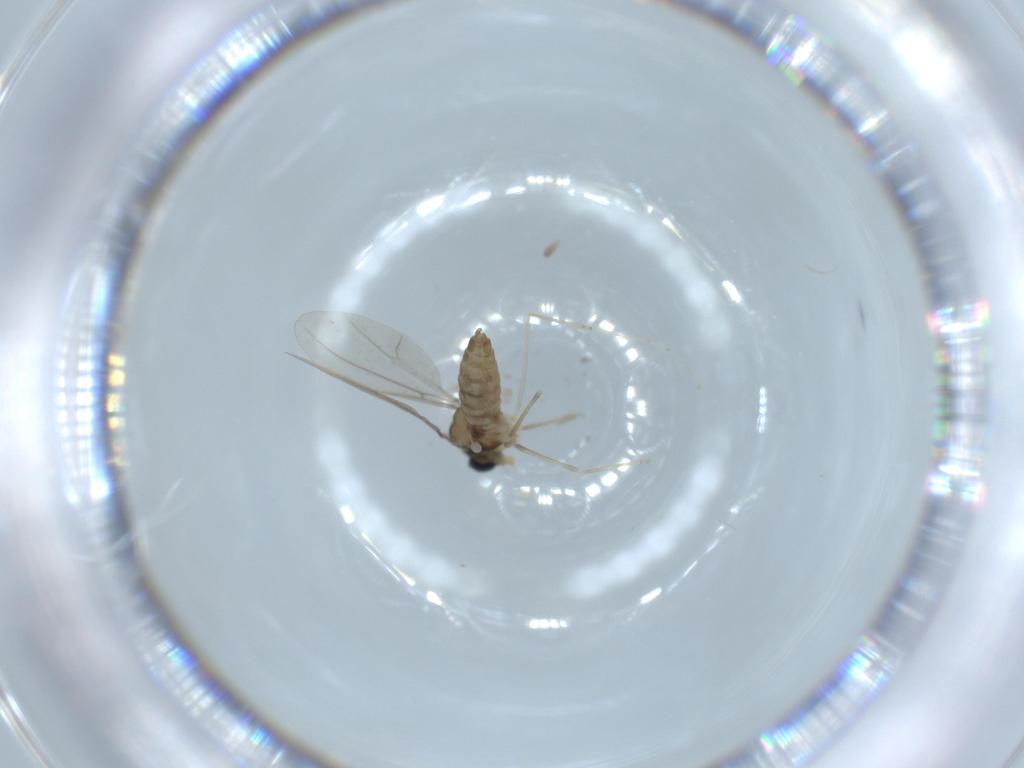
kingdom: Animalia
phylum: Arthropoda
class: Insecta
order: Diptera
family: Cecidomyiidae
